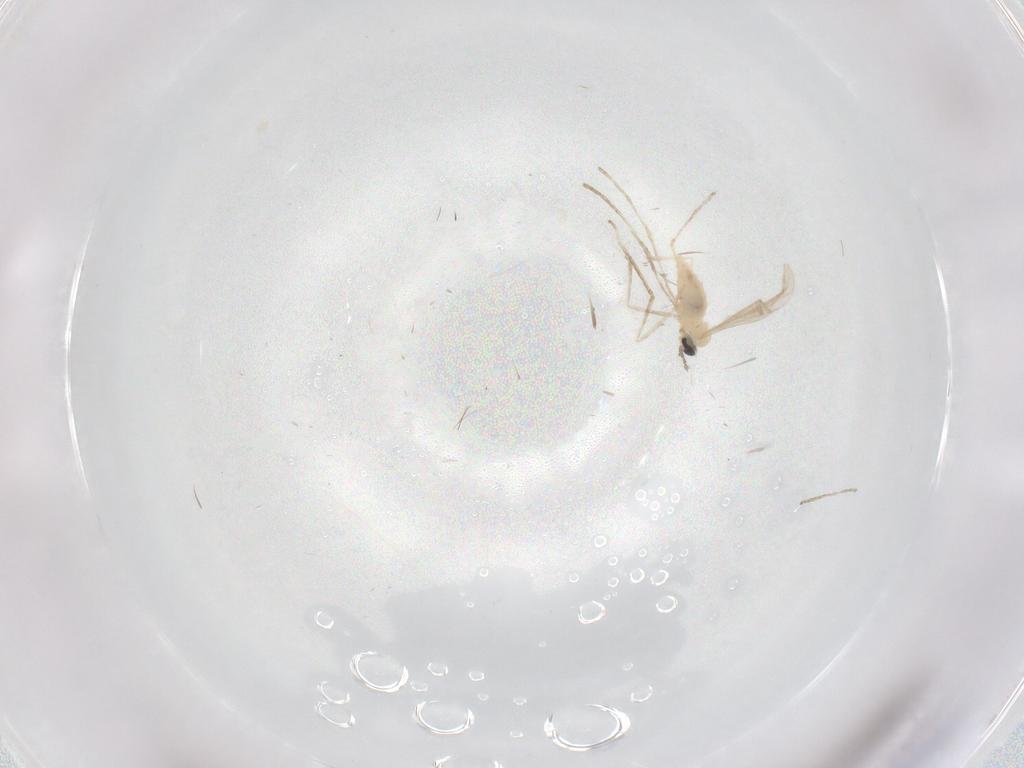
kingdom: Animalia
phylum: Arthropoda
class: Insecta
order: Diptera
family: Cecidomyiidae
